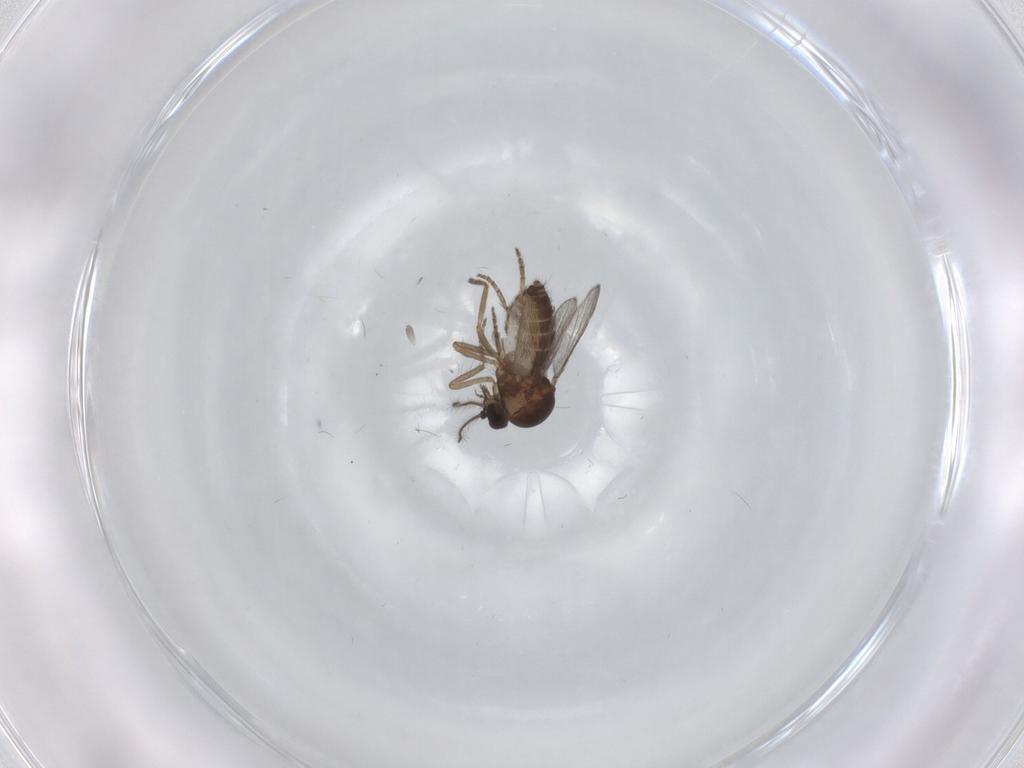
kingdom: Animalia
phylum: Arthropoda
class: Insecta
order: Diptera
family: Ceratopogonidae
